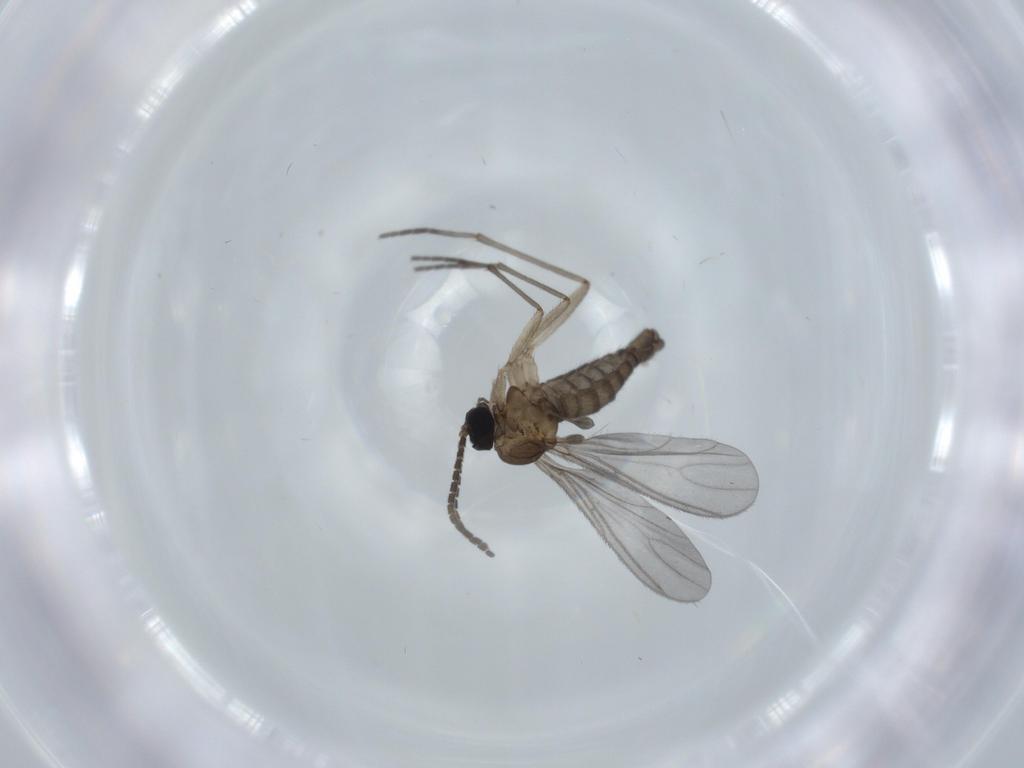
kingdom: Animalia
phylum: Arthropoda
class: Insecta
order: Diptera
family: Sciaridae
